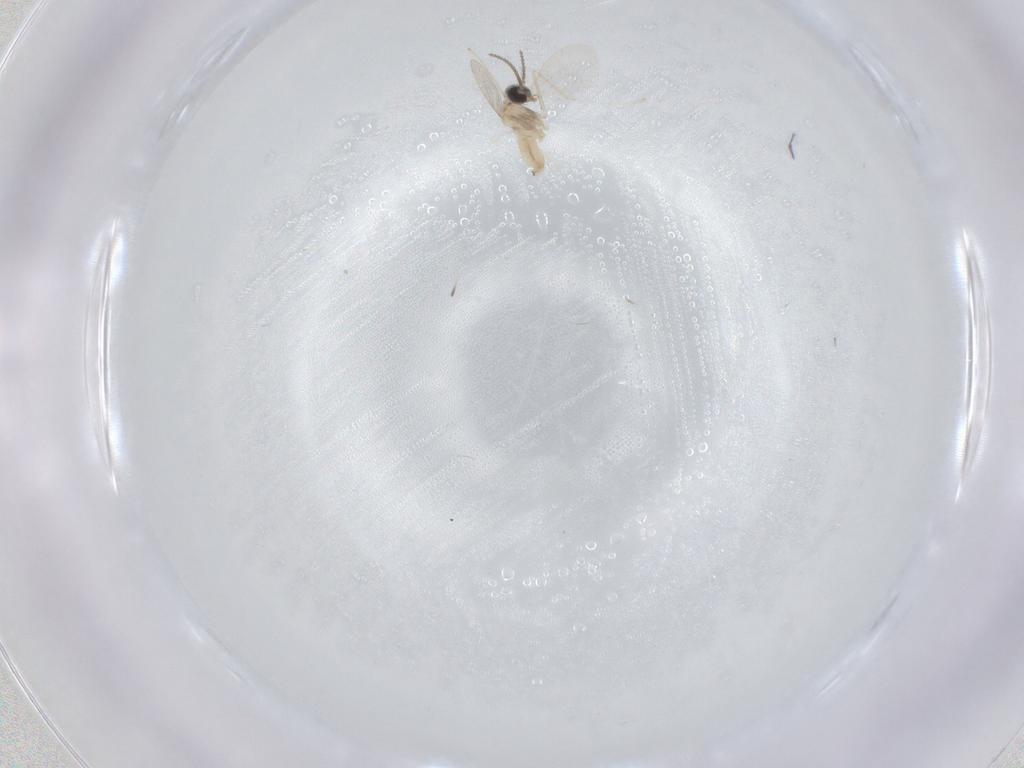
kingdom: Animalia
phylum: Arthropoda
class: Insecta
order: Diptera
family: Cecidomyiidae
